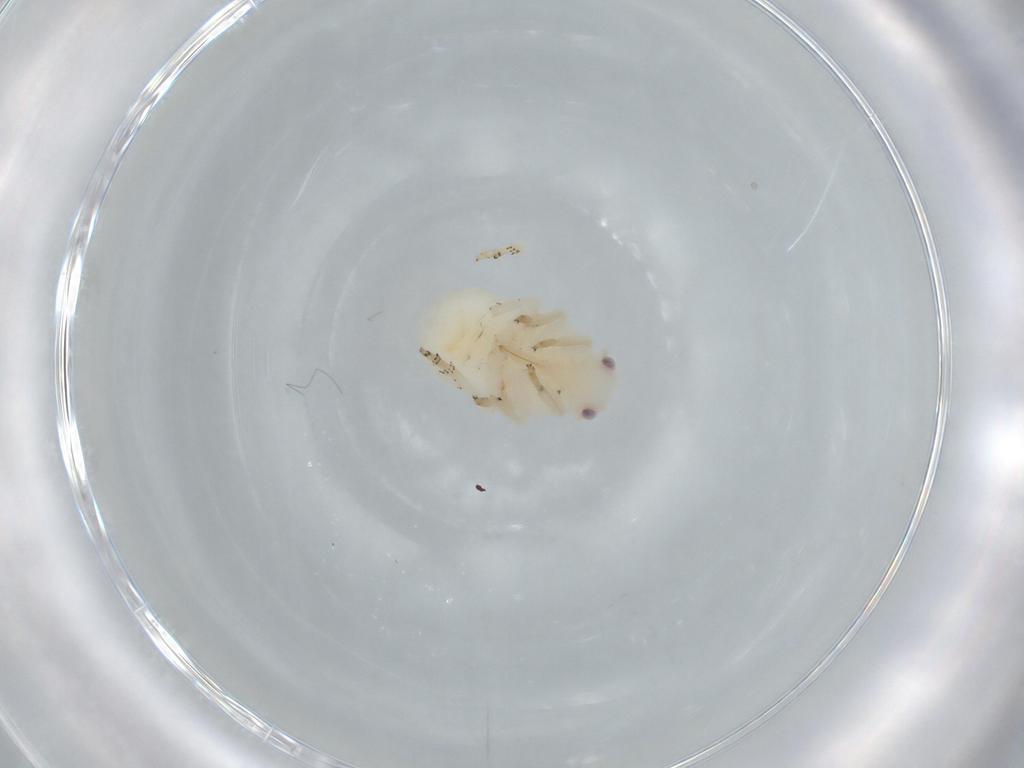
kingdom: Animalia
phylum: Arthropoda
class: Insecta
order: Hemiptera
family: Flatidae
